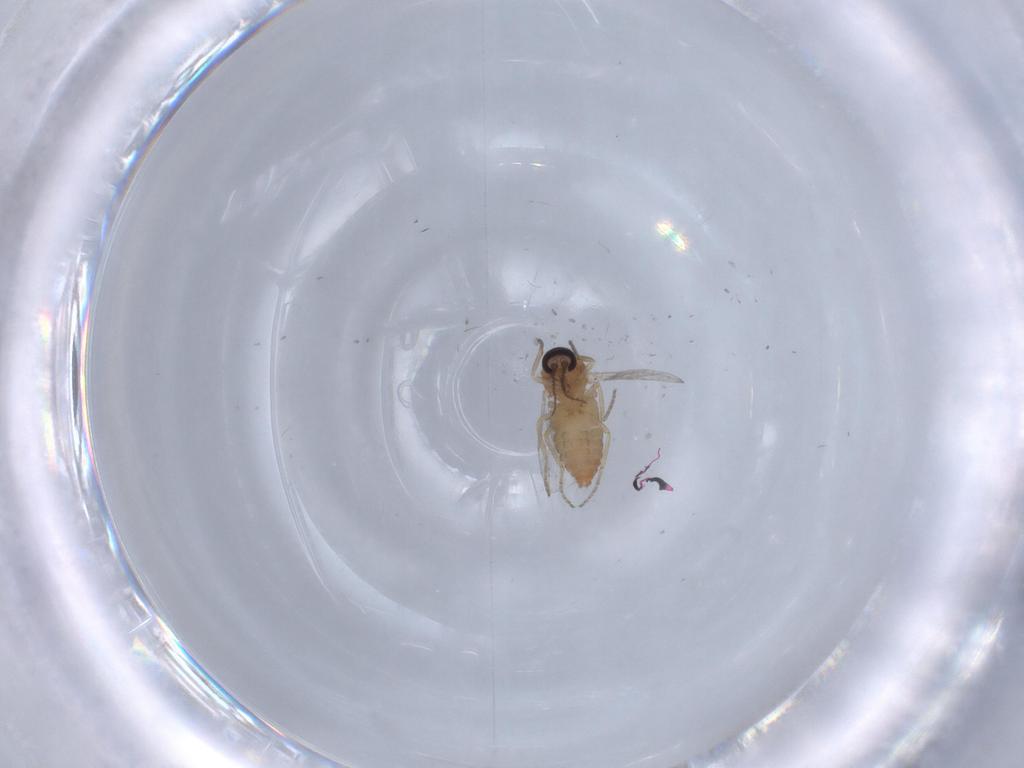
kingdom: Animalia
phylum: Arthropoda
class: Insecta
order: Diptera
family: Ceratopogonidae
